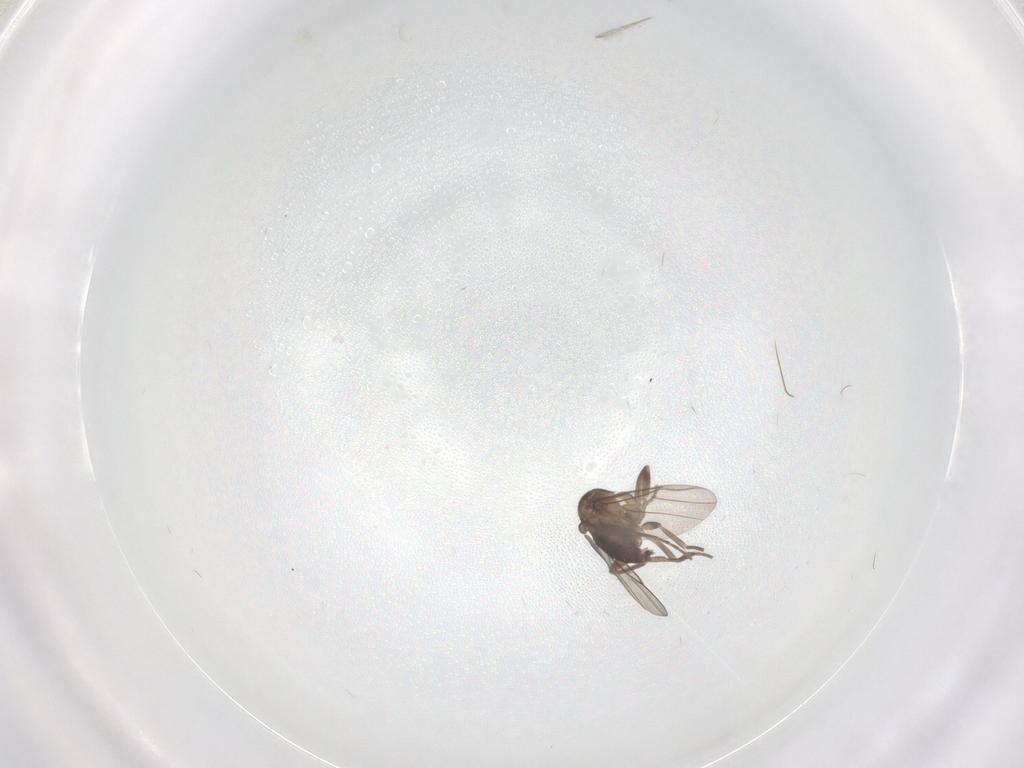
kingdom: Animalia
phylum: Arthropoda
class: Insecta
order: Diptera
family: Phoridae
